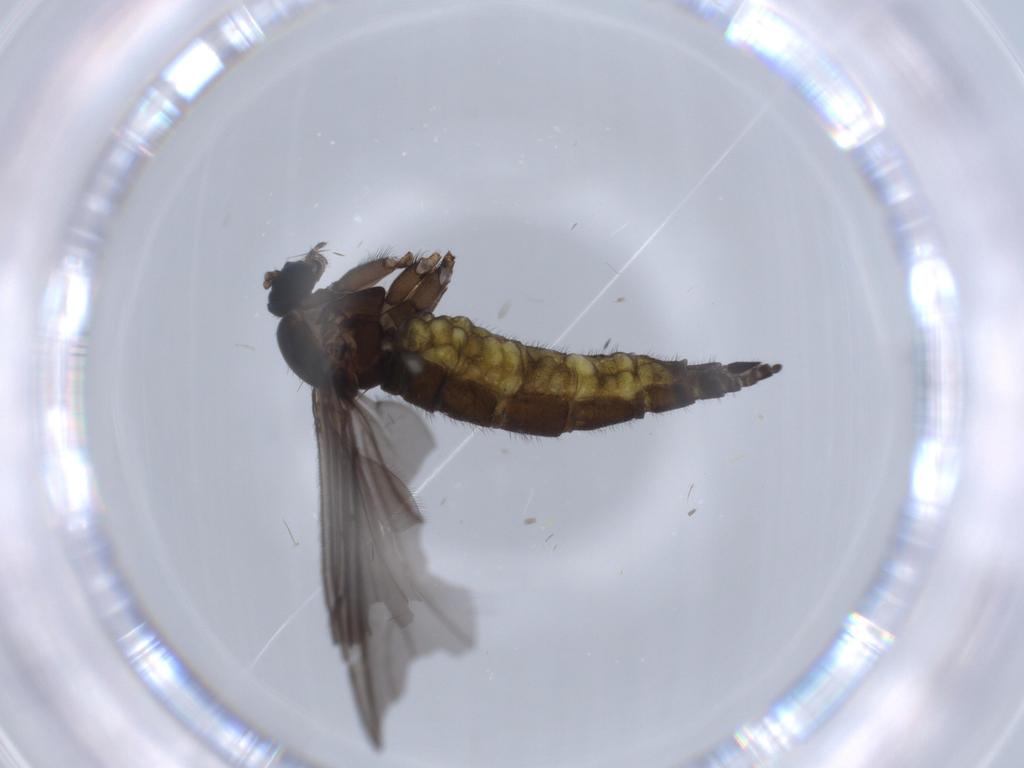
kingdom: Animalia
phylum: Arthropoda
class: Insecta
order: Diptera
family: Sciaridae
